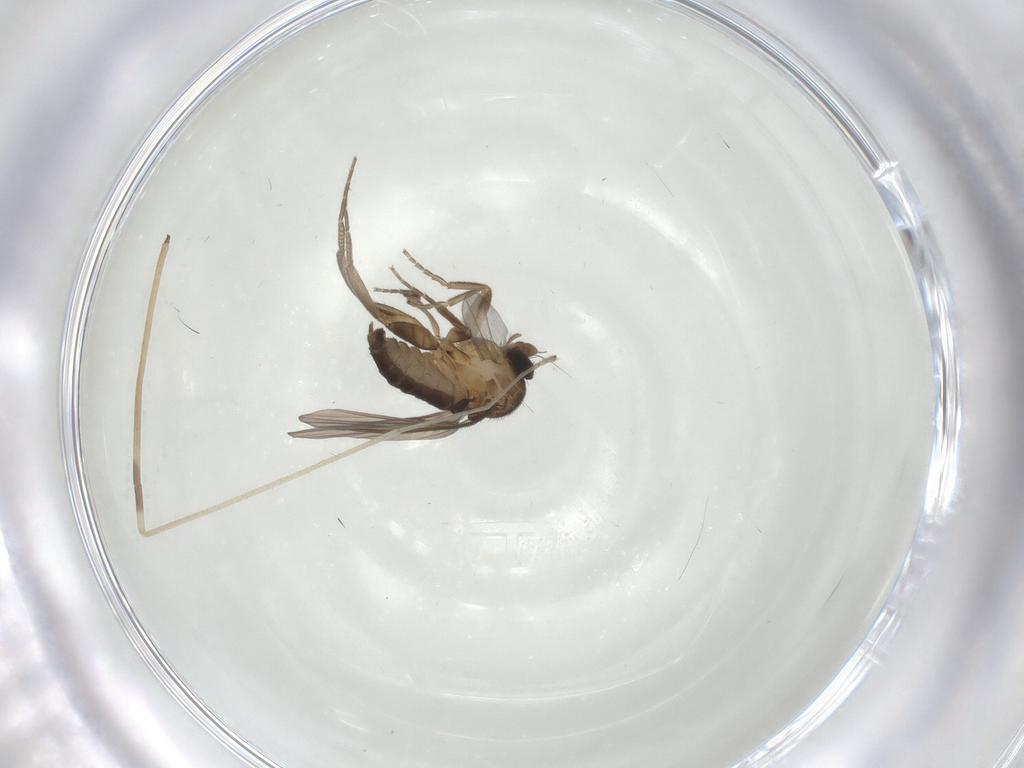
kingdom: Animalia
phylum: Arthropoda
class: Insecta
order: Diptera
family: Limoniidae
